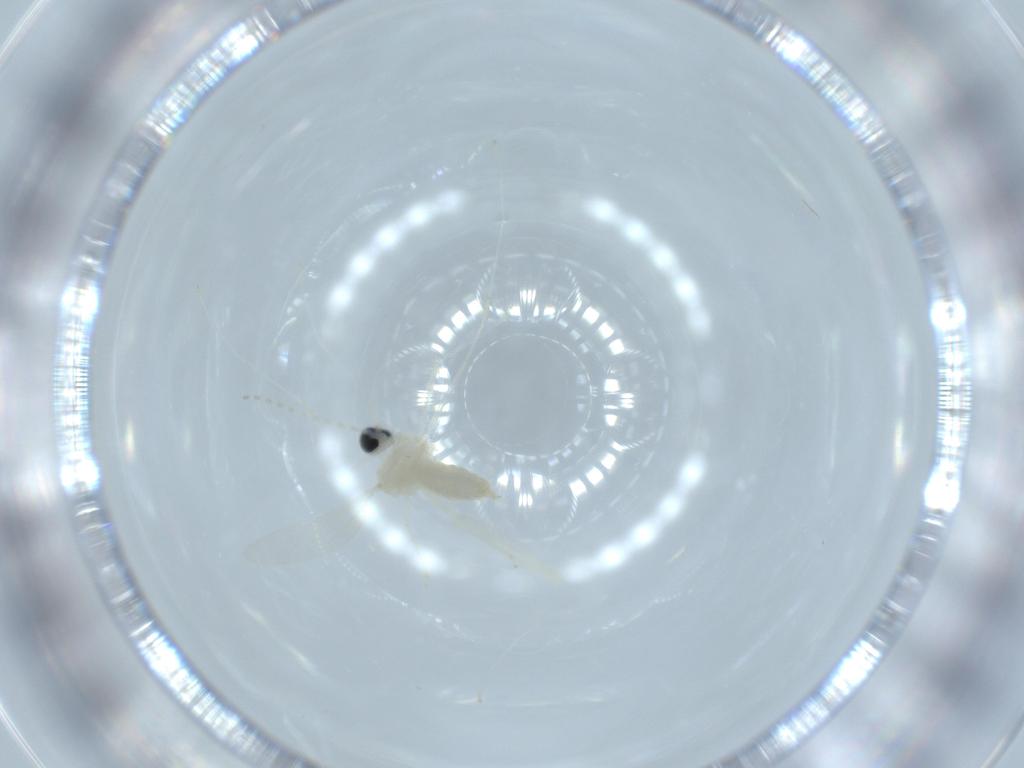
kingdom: Animalia
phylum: Arthropoda
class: Insecta
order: Diptera
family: Cecidomyiidae
